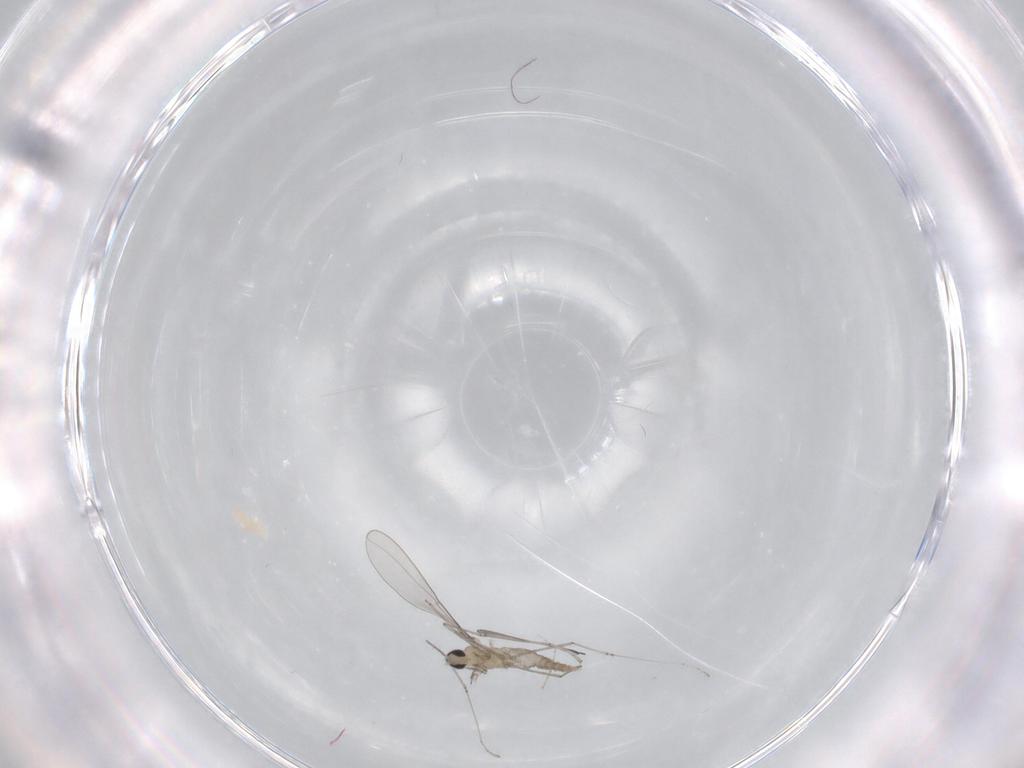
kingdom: Animalia
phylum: Arthropoda
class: Insecta
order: Diptera
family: Cecidomyiidae
